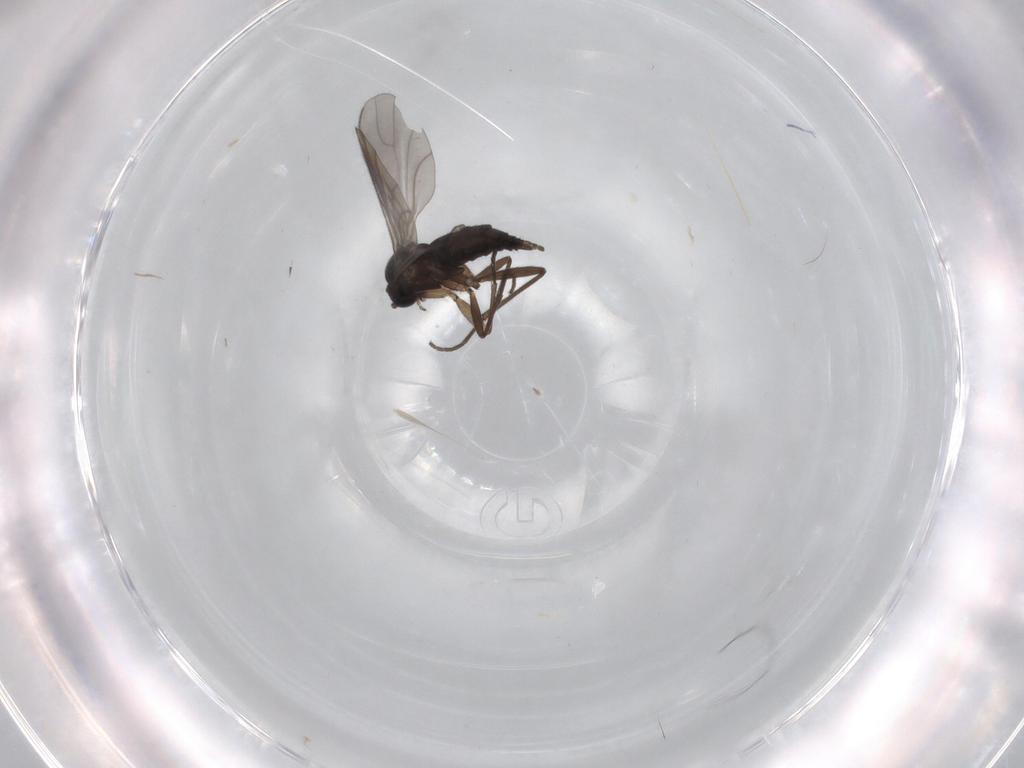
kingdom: Animalia
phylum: Arthropoda
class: Insecta
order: Diptera
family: Sciaridae
